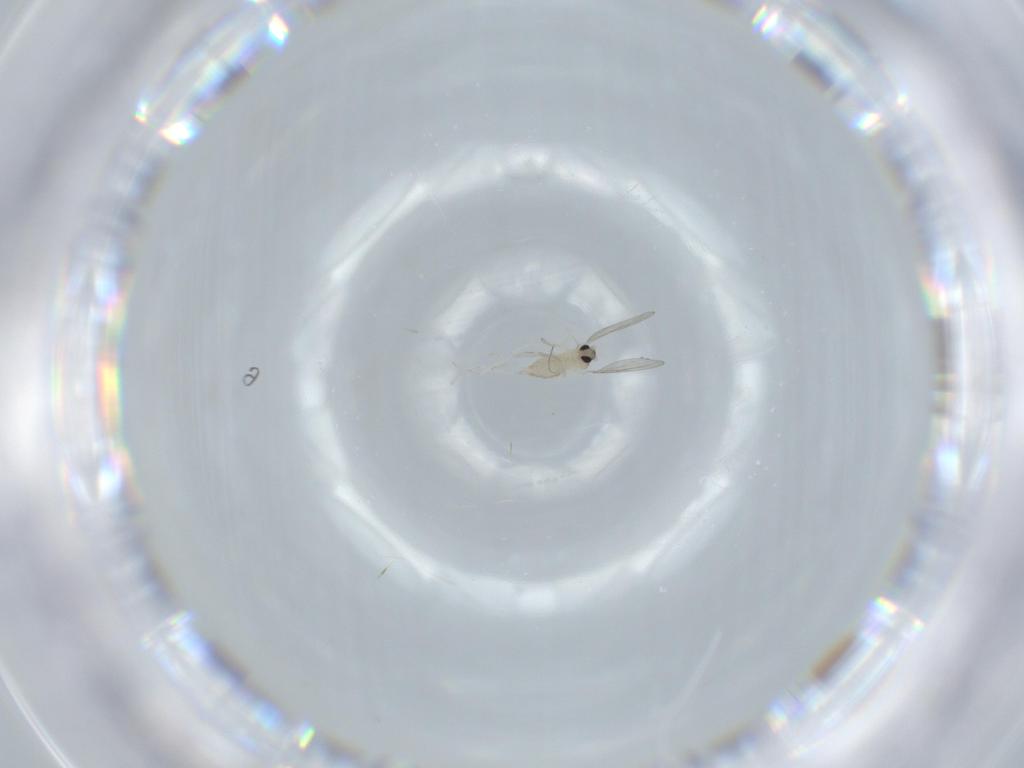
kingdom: Animalia
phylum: Arthropoda
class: Insecta
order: Diptera
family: Cecidomyiidae
